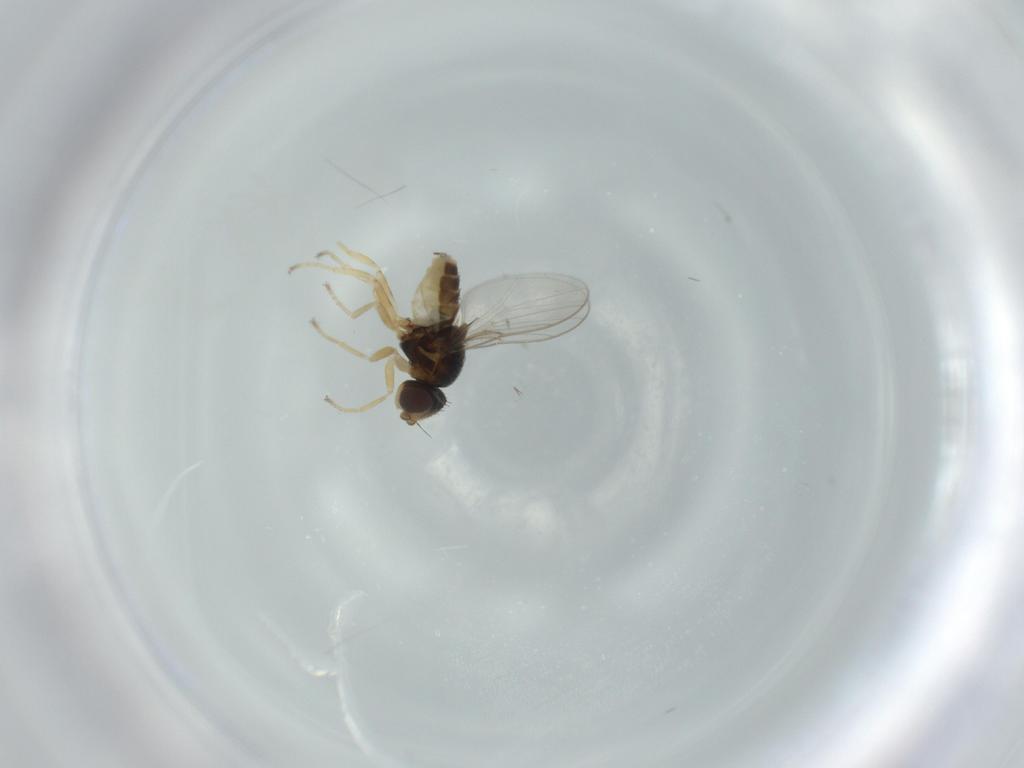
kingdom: Animalia
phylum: Arthropoda
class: Insecta
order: Diptera
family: Chloropidae
